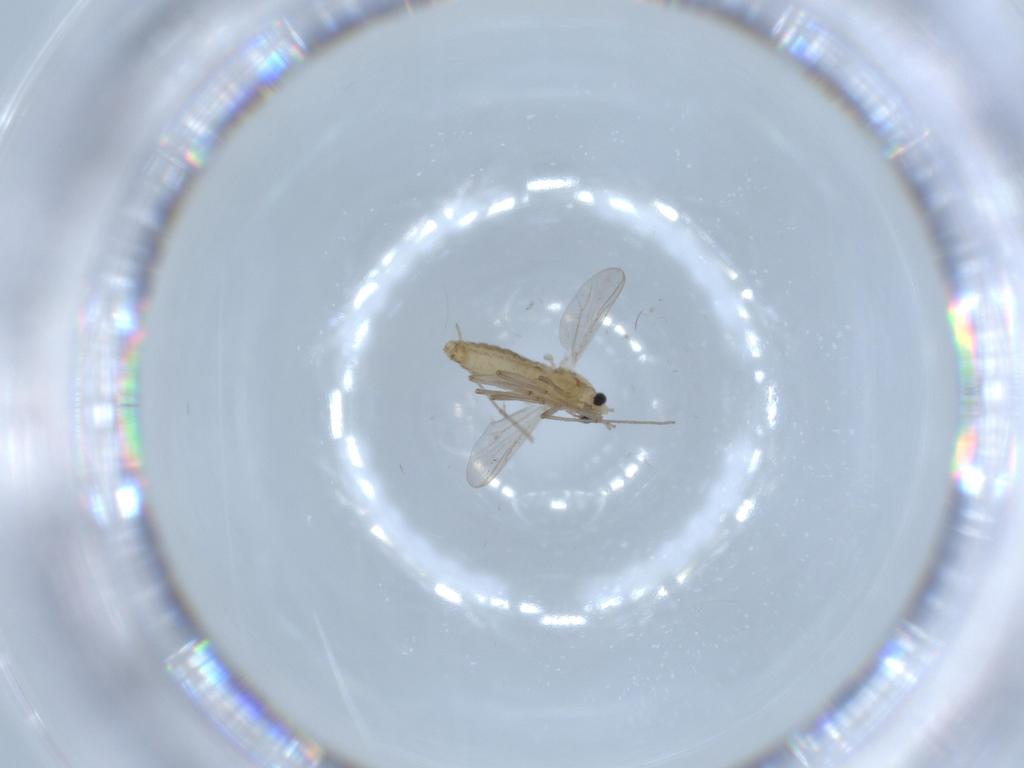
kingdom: Animalia
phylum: Arthropoda
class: Insecta
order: Diptera
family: Chironomidae
